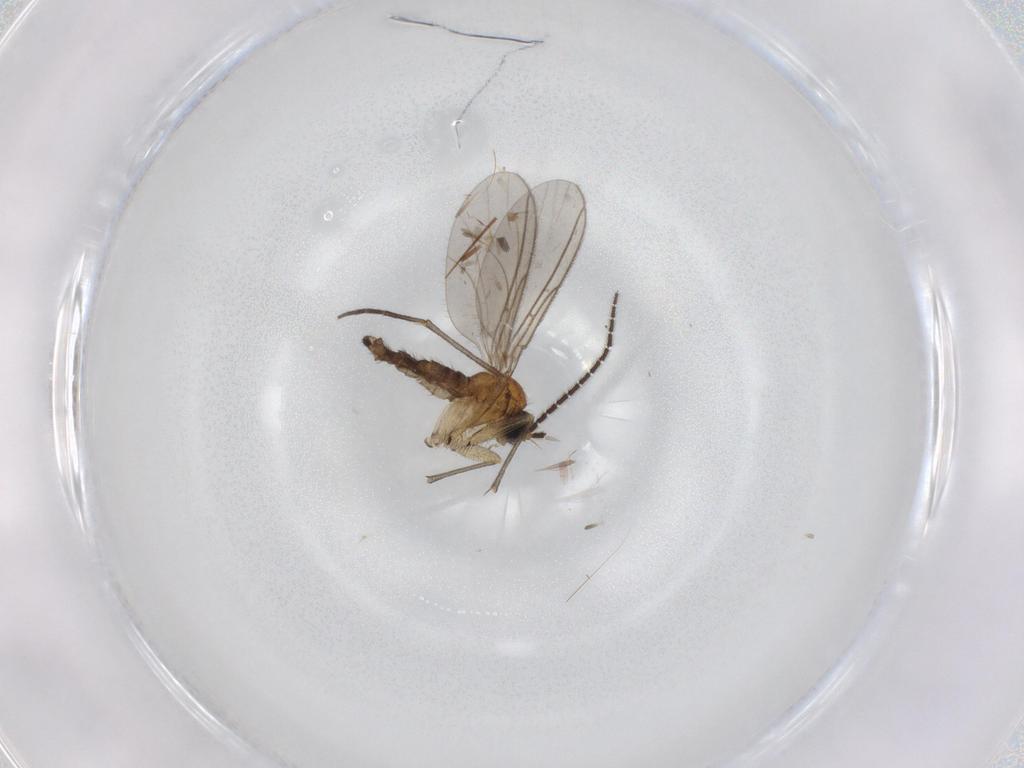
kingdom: Animalia
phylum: Arthropoda
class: Insecta
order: Diptera
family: Sciaridae
